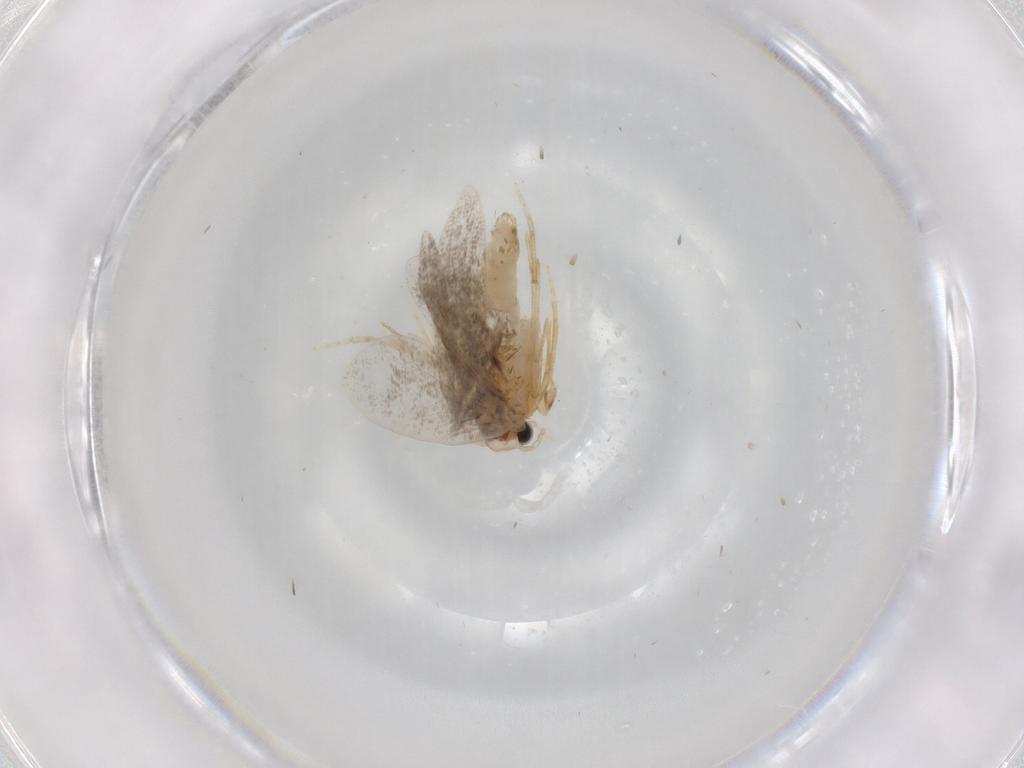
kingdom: Animalia
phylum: Arthropoda
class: Insecta
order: Lepidoptera
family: Psychidae
